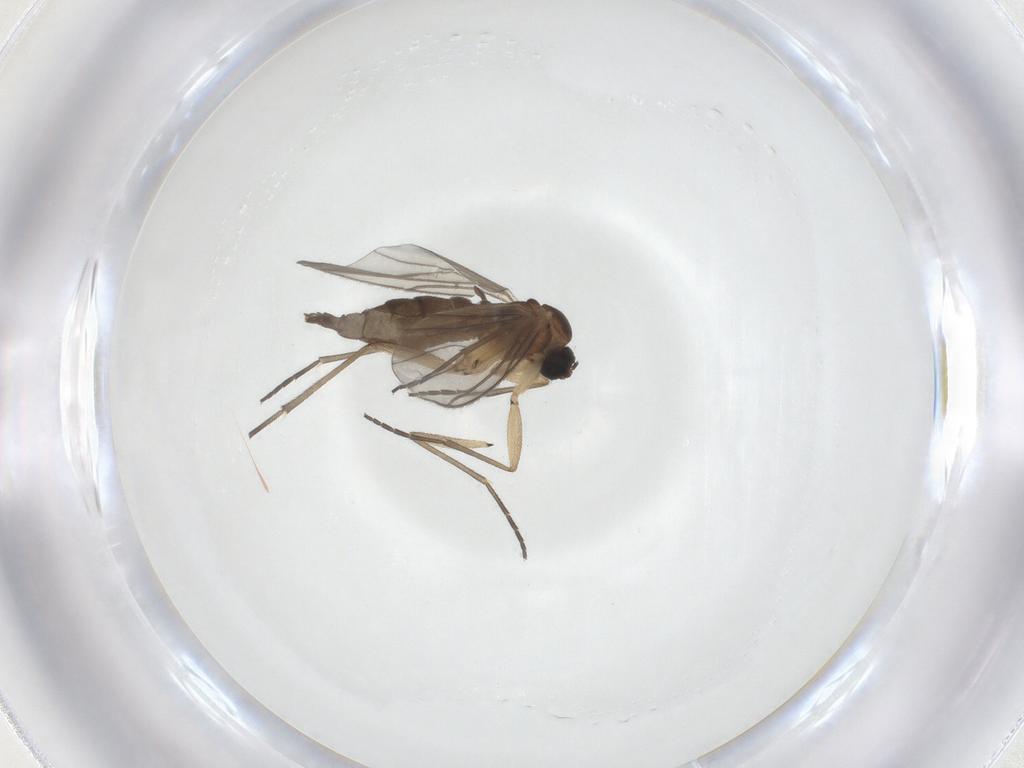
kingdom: Animalia
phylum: Arthropoda
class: Insecta
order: Diptera
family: Sciaridae
